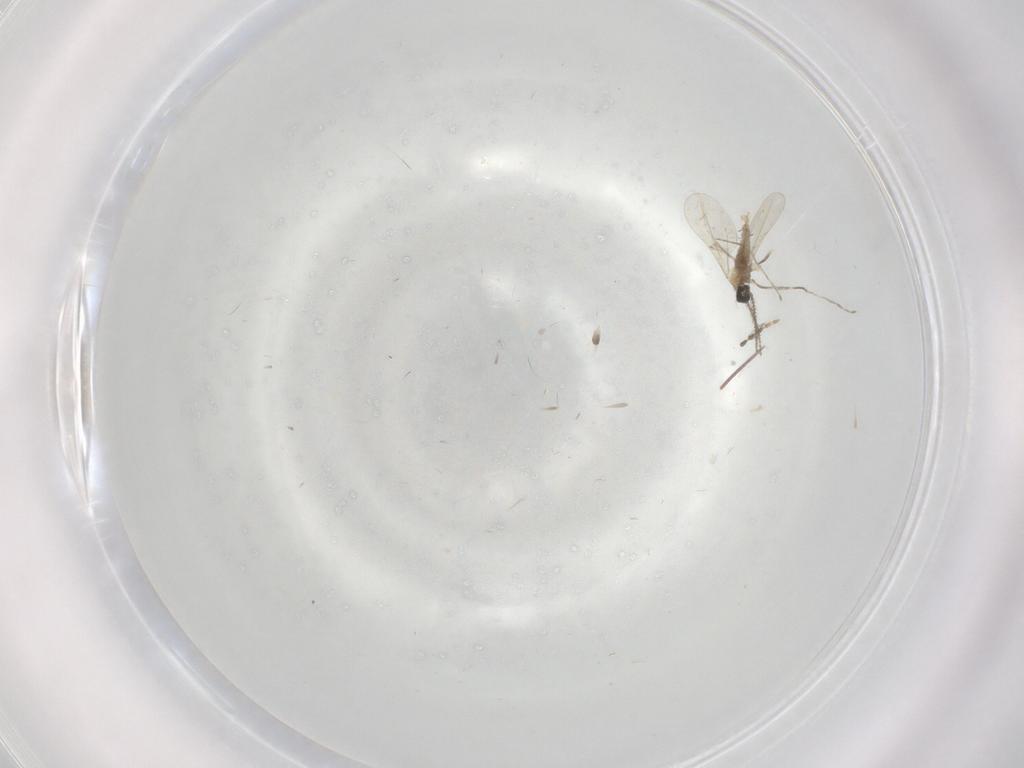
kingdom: Animalia
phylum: Arthropoda
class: Insecta
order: Diptera
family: Cecidomyiidae
